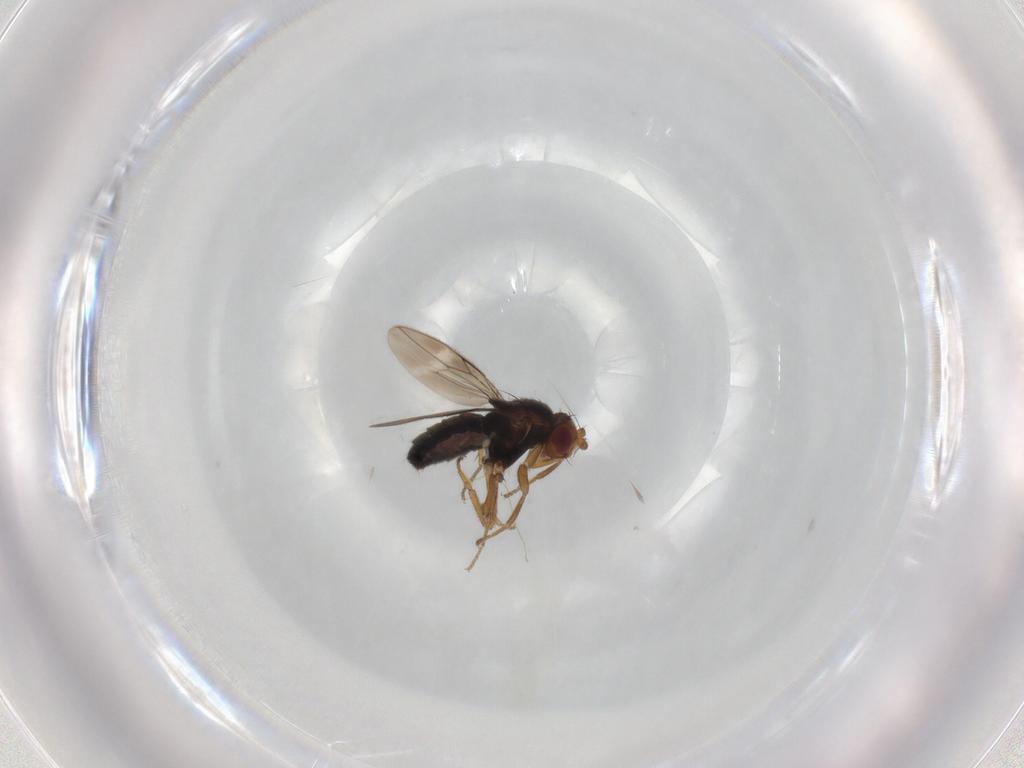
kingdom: Animalia
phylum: Arthropoda
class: Insecta
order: Diptera
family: Sphaeroceridae
